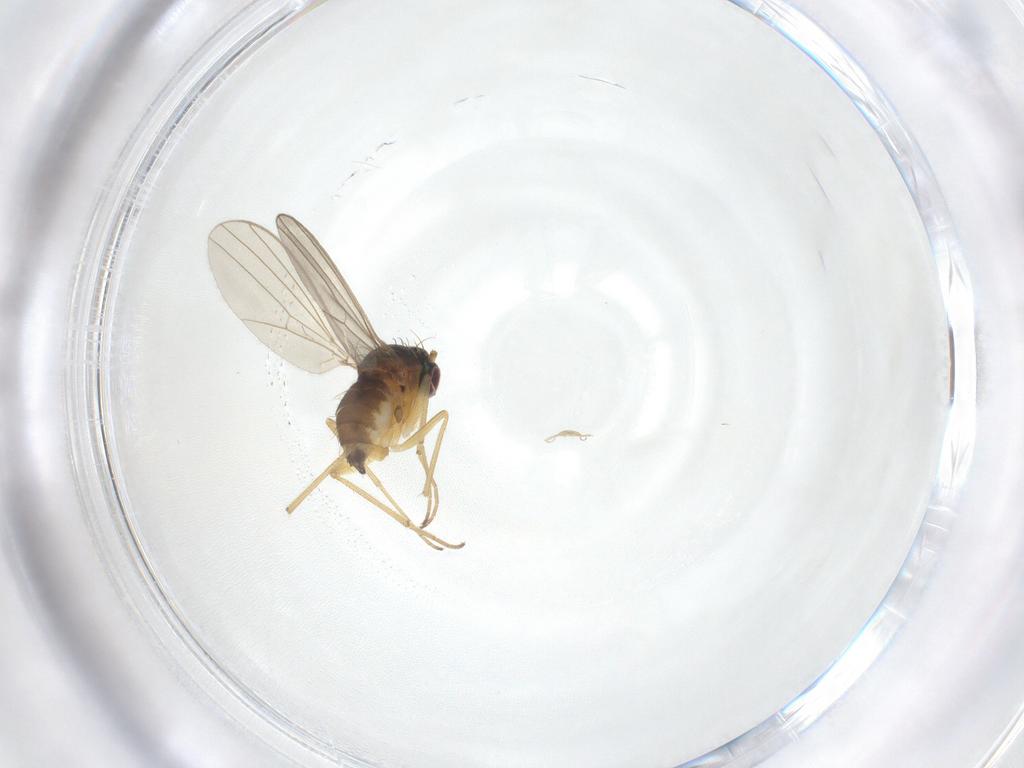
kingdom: Animalia
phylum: Arthropoda
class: Insecta
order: Diptera
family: Dolichopodidae
